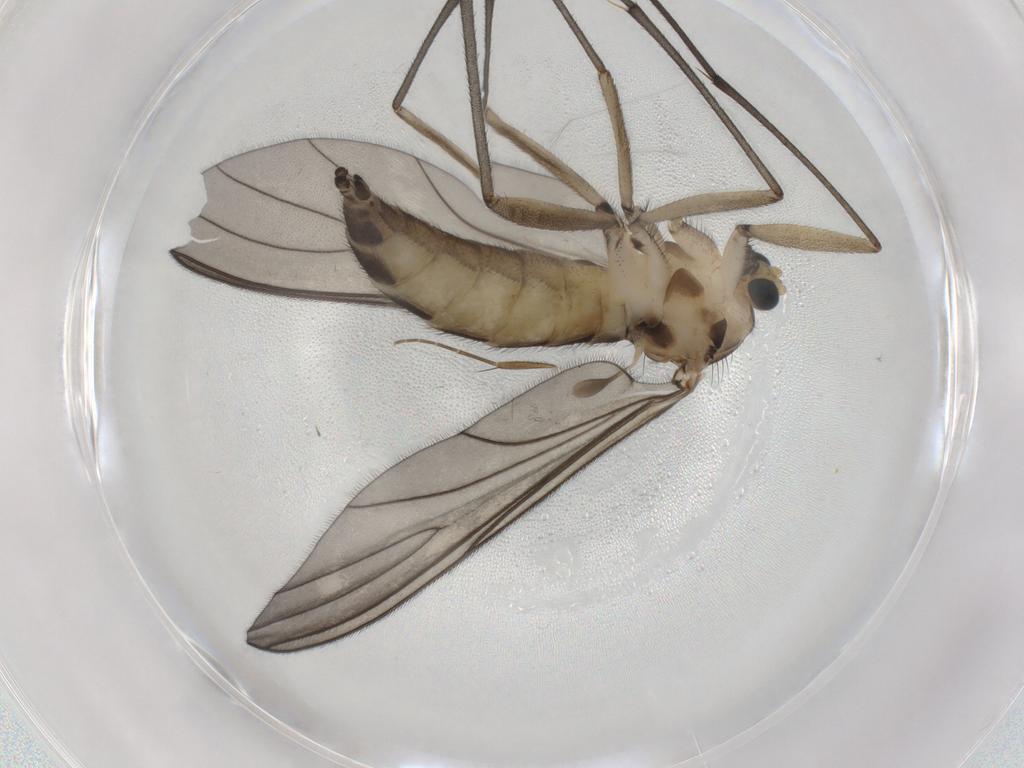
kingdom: Animalia
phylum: Arthropoda
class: Insecta
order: Diptera
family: Sciaridae
